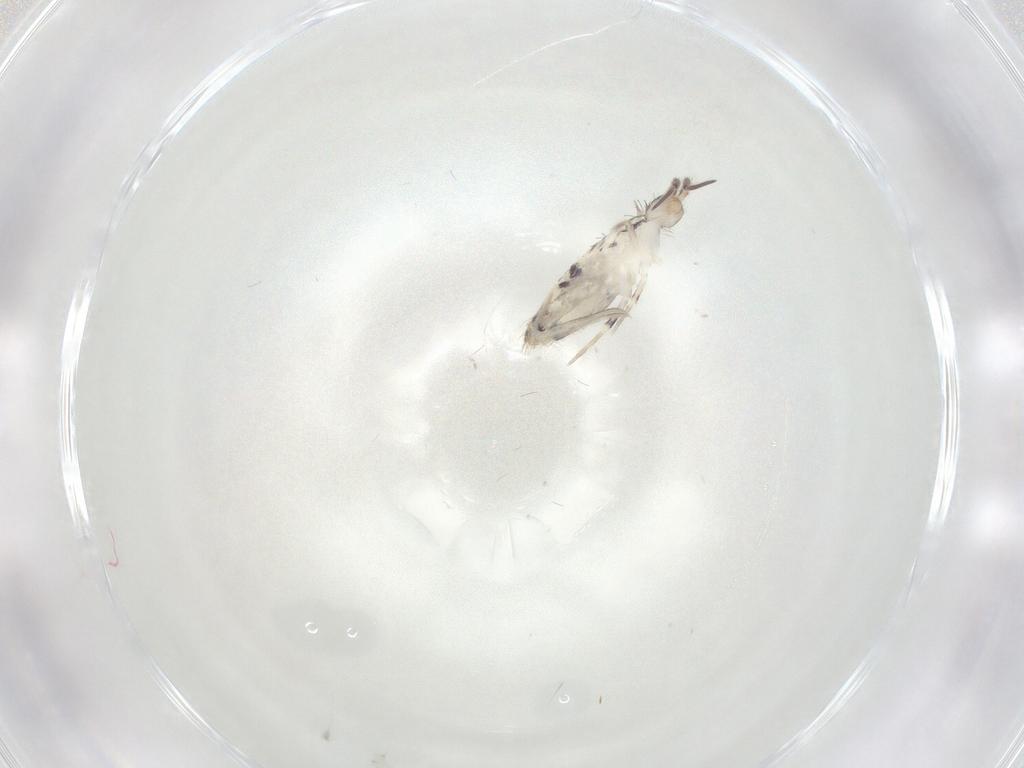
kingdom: Animalia
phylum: Arthropoda
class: Collembola
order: Entomobryomorpha
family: Entomobryidae
